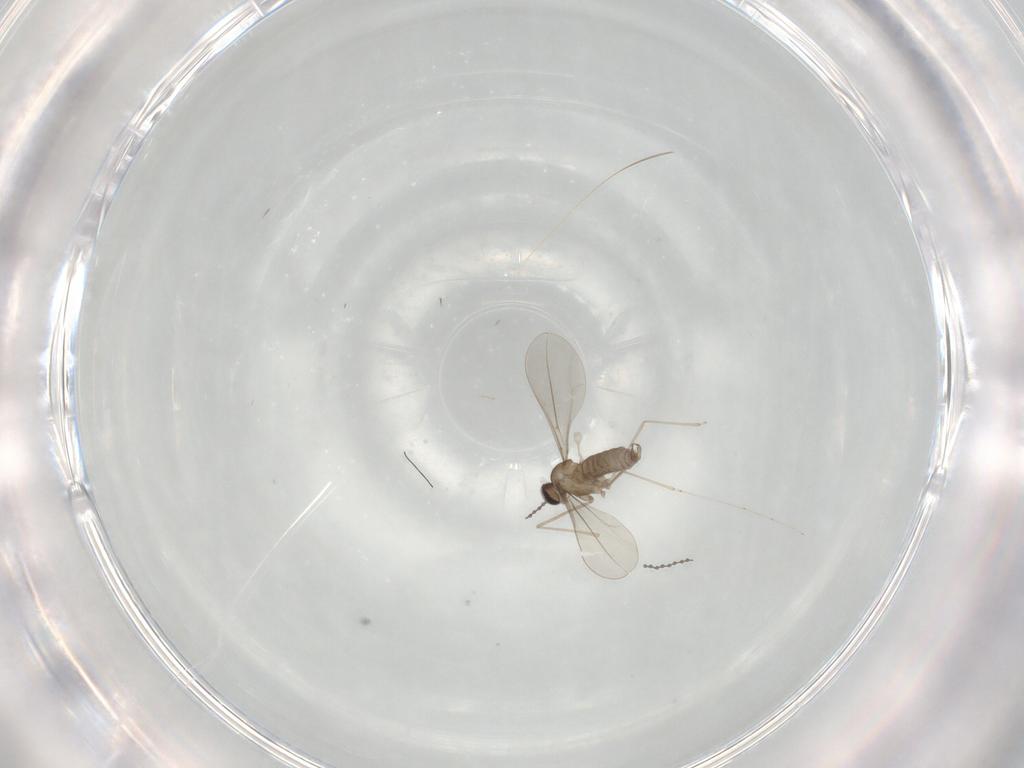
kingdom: Animalia
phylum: Arthropoda
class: Insecta
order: Diptera
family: Cecidomyiidae
